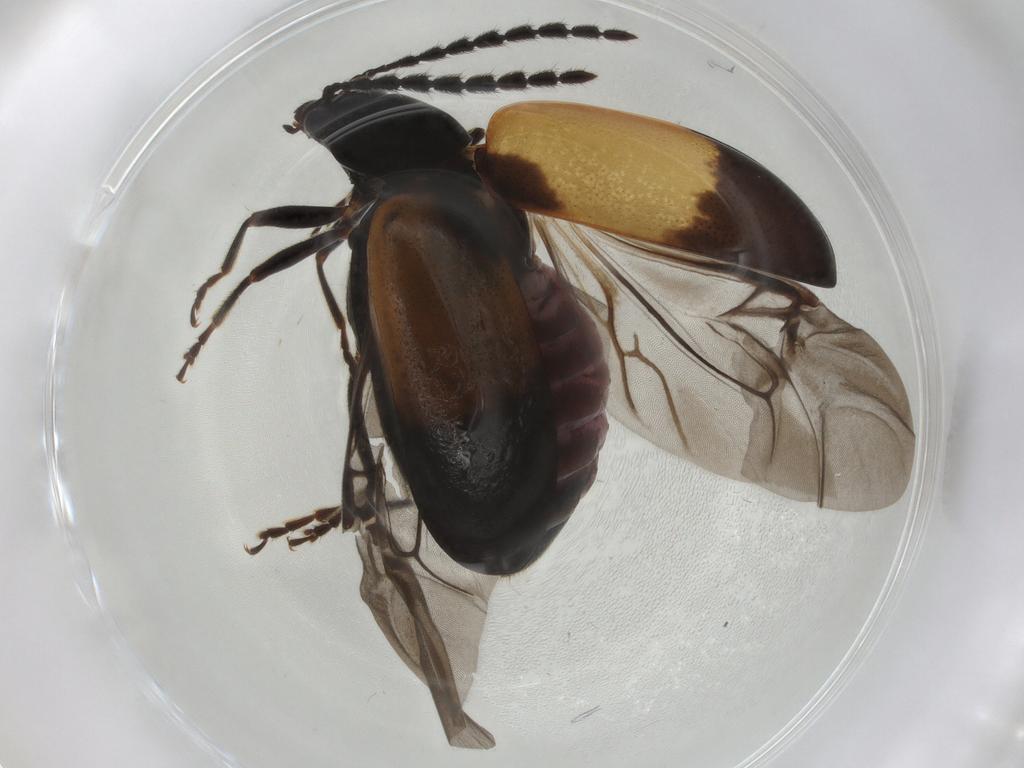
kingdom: Animalia
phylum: Arthropoda
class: Insecta
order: Coleoptera
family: Chrysomelidae
